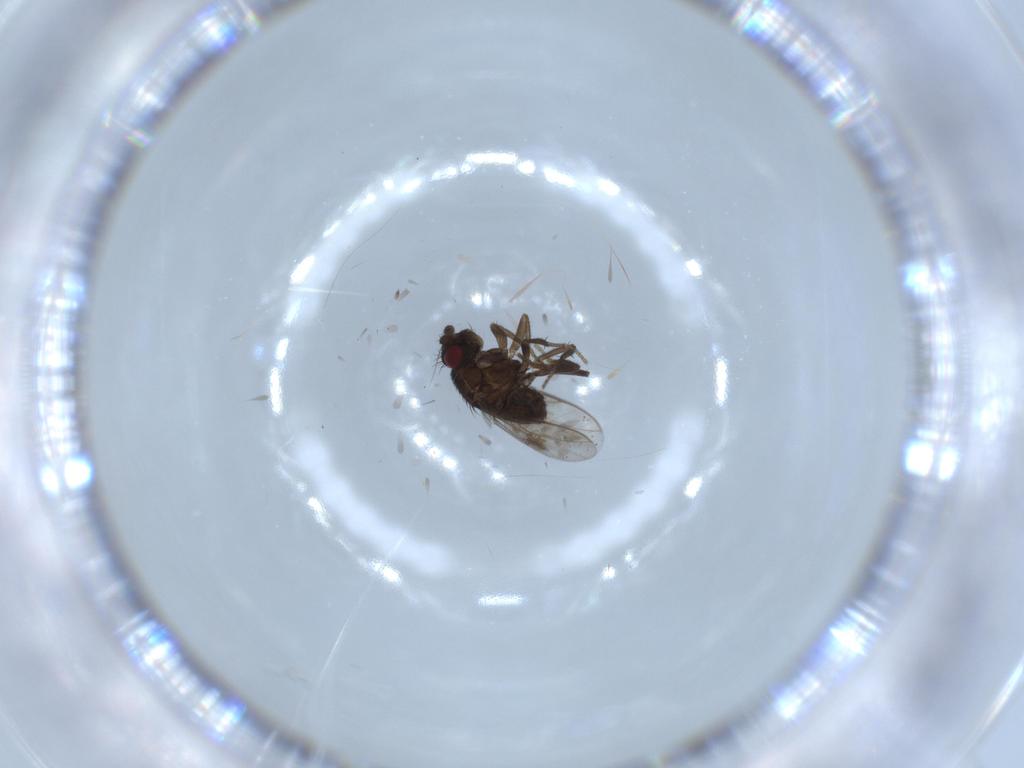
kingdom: Animalia
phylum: Arthropoda
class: Insecta
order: Diptera
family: Sphaeroceridae
